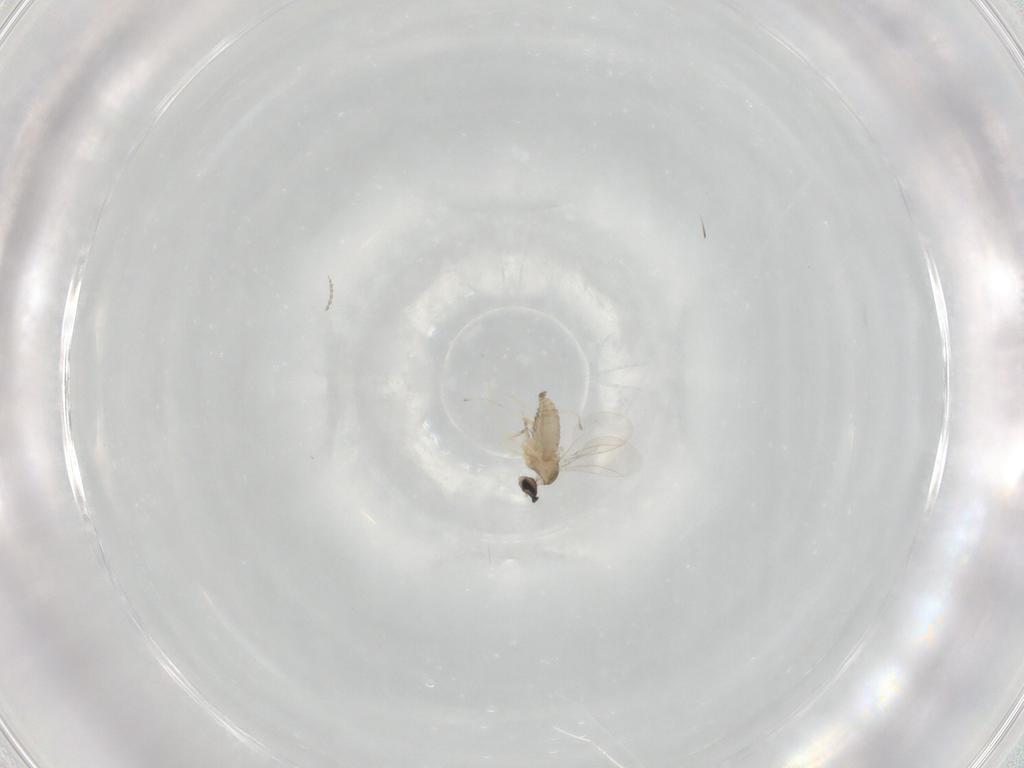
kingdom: Animalia
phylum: Arthropoda
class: Insecta
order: Diptera
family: Cecidomyiidae
